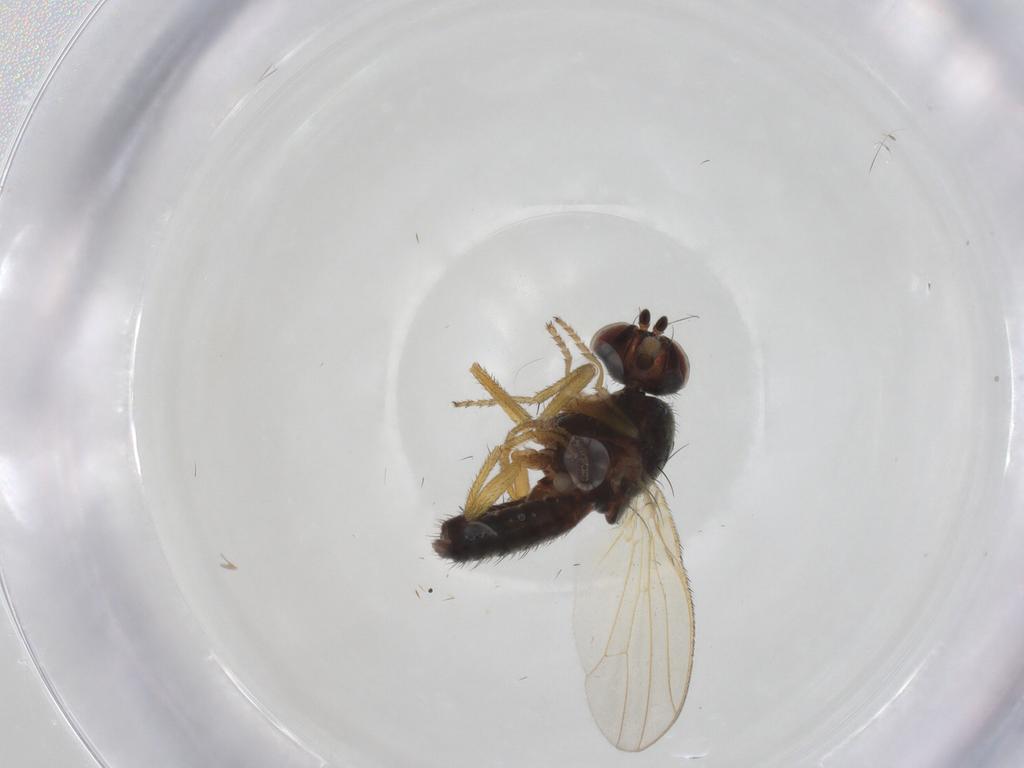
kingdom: Animalia
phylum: Arthropoda
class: Insecta
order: Diptera
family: Heleomyzidae
